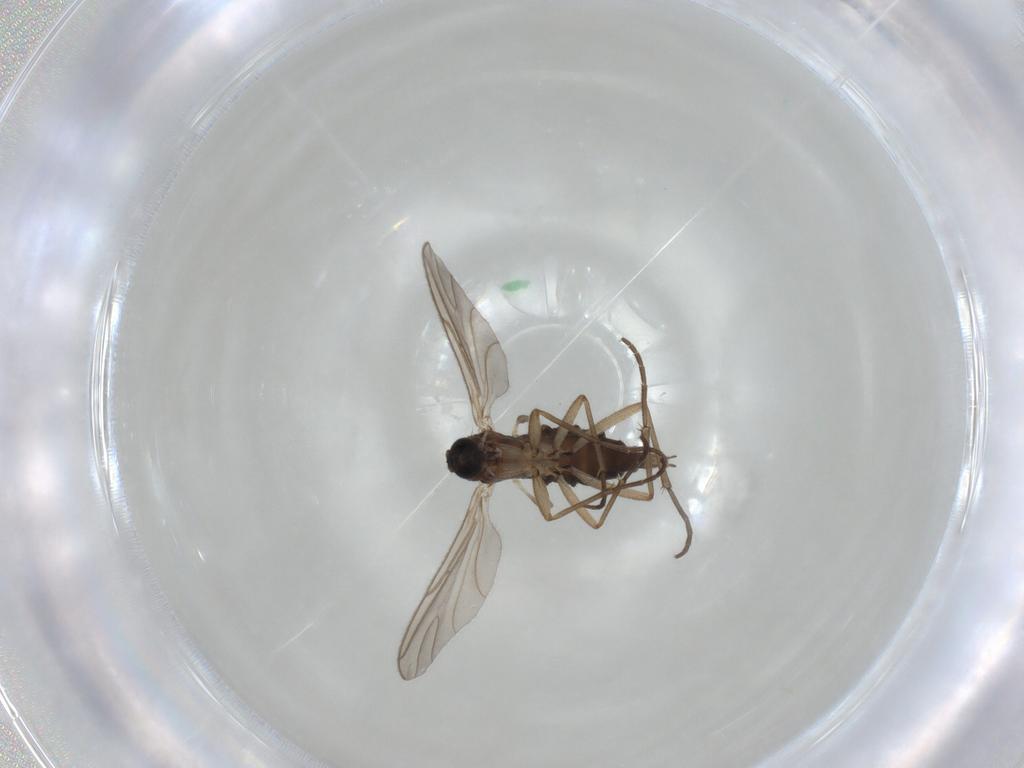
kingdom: Animalia
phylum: Arthropoda
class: Insecta
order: Diptera
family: Sciaridae
